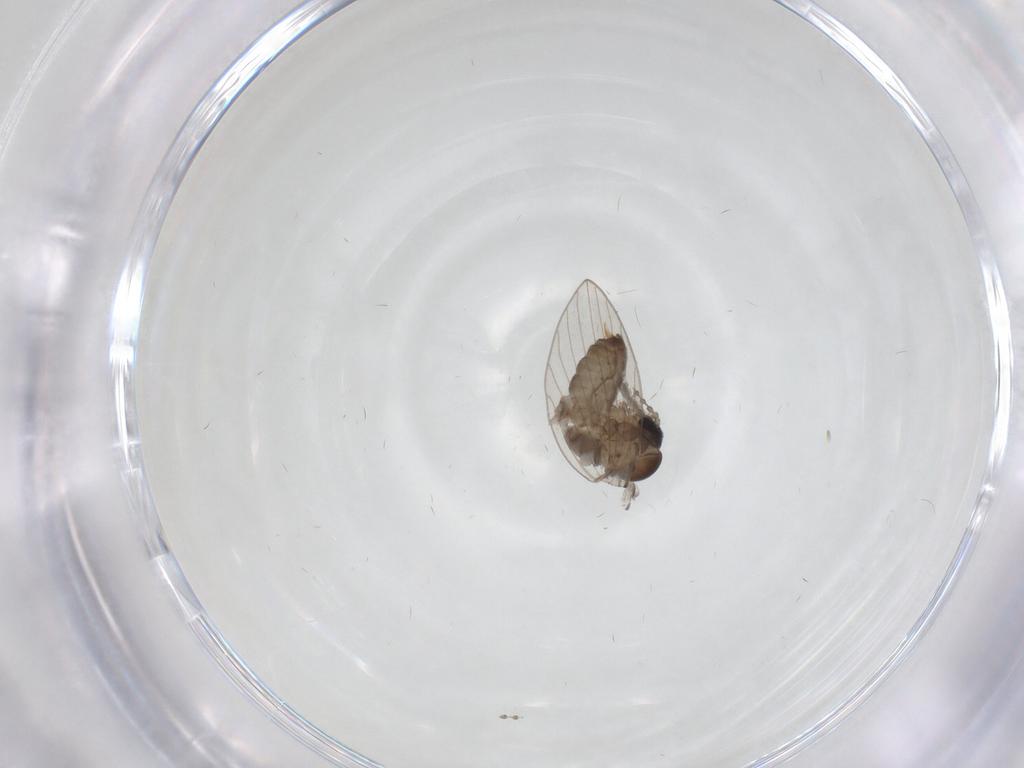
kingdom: Animalia
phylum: Arthropoda
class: Insecta
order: Diptera
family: Psychodidae
